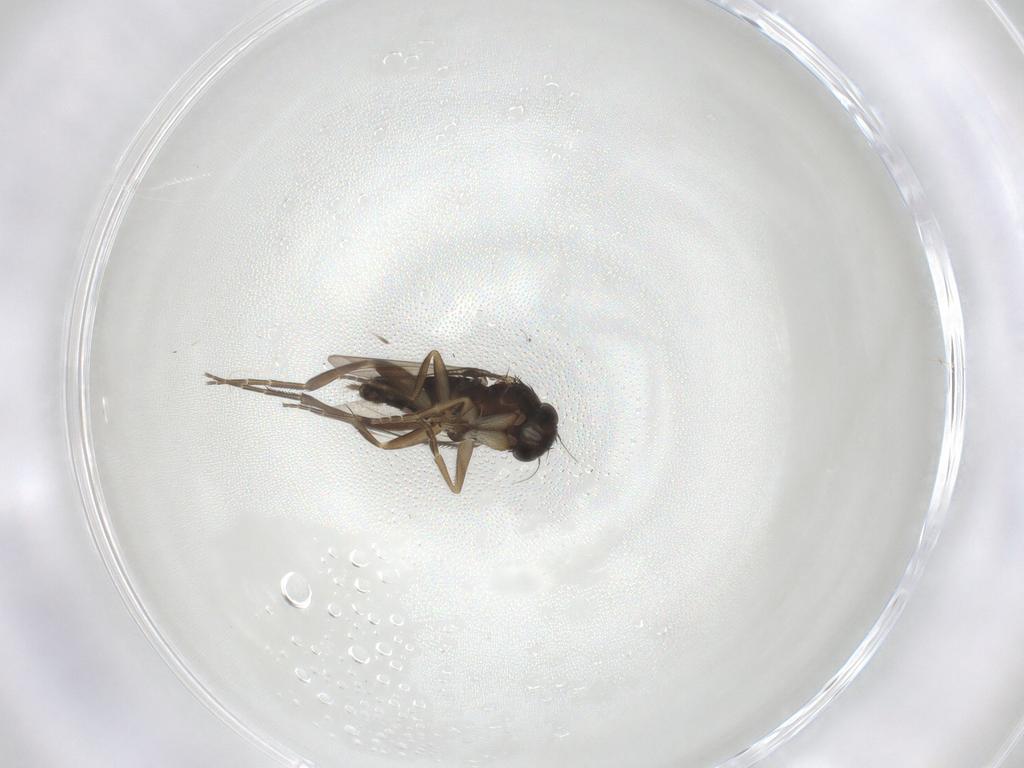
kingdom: Animalia
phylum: Arthropoda
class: Insecta
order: Diptera
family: Phoridae
